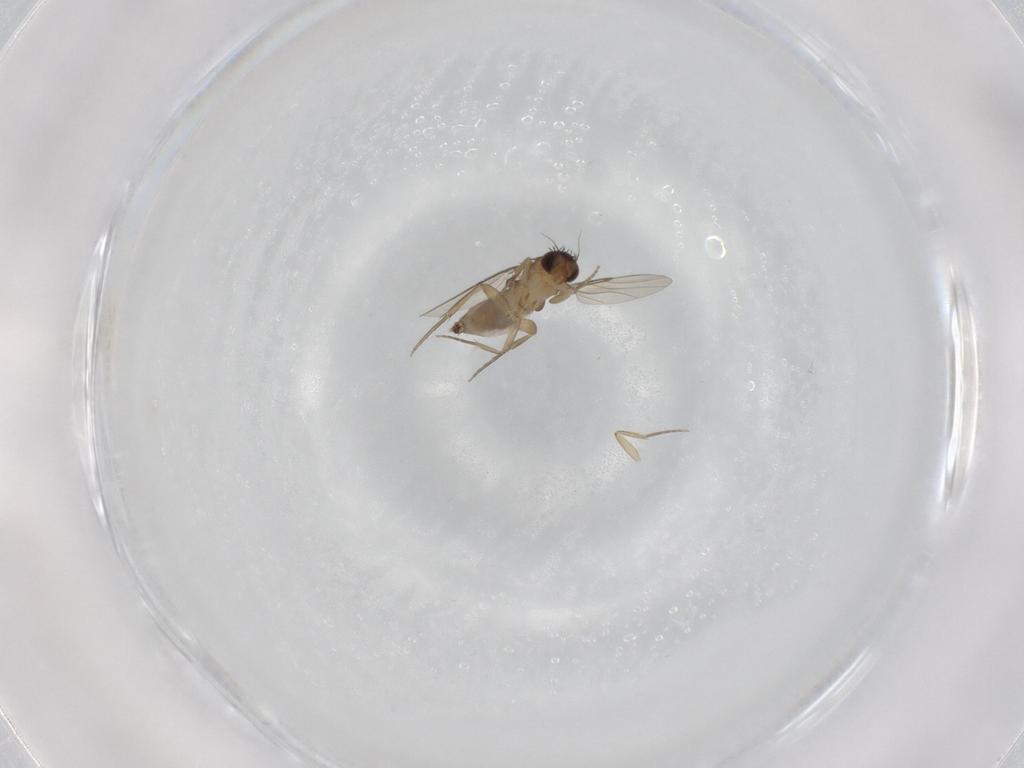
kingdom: Animalia
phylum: Arthropoda
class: Insecta
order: Diptera
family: Phoridae
